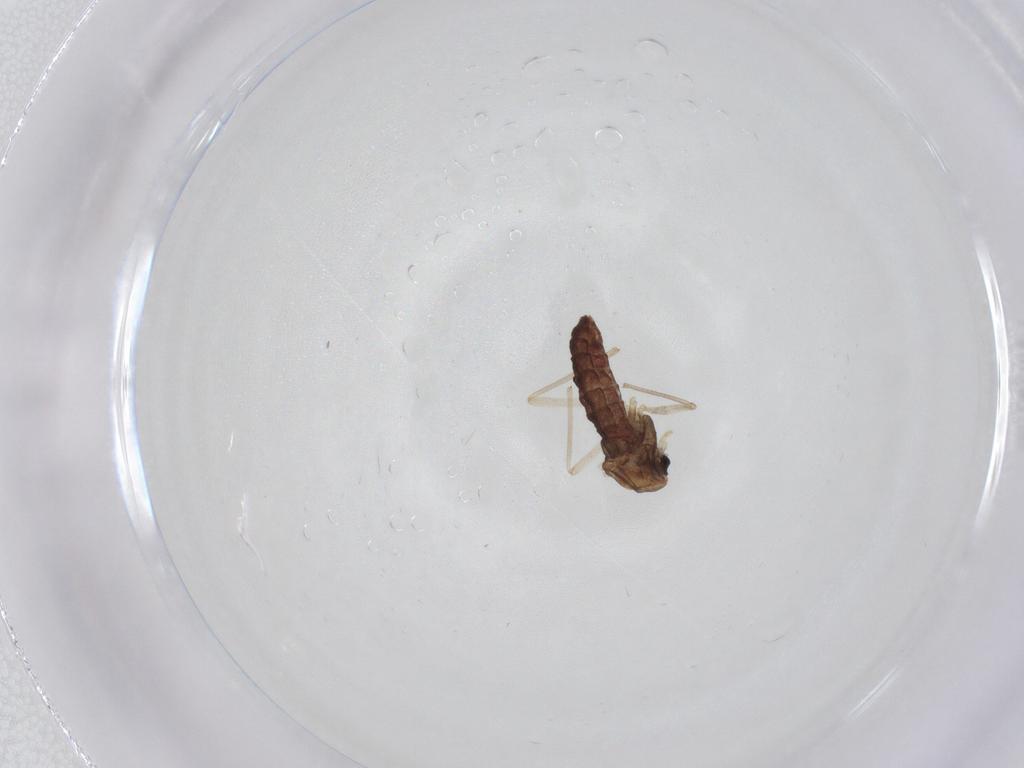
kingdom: Animalia
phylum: Arthropoda
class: Insecta
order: Diptera
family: Chironomidae
